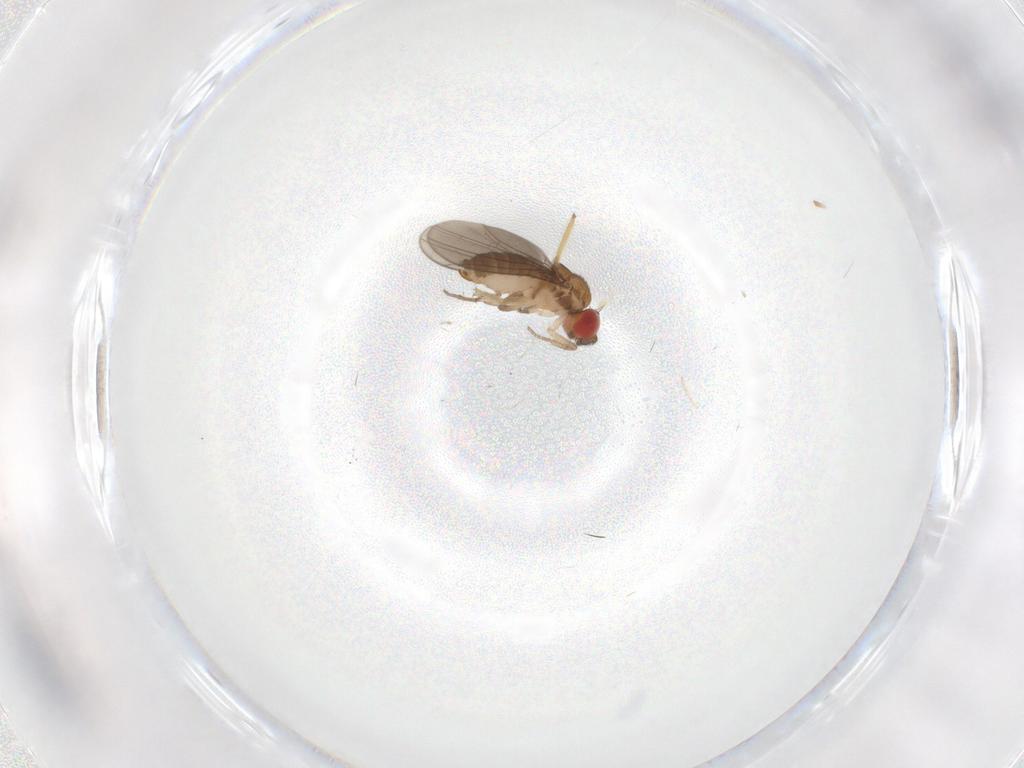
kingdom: Animalia
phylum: Arthropoda
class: Insecta
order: Diptera
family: Drosophilidae
